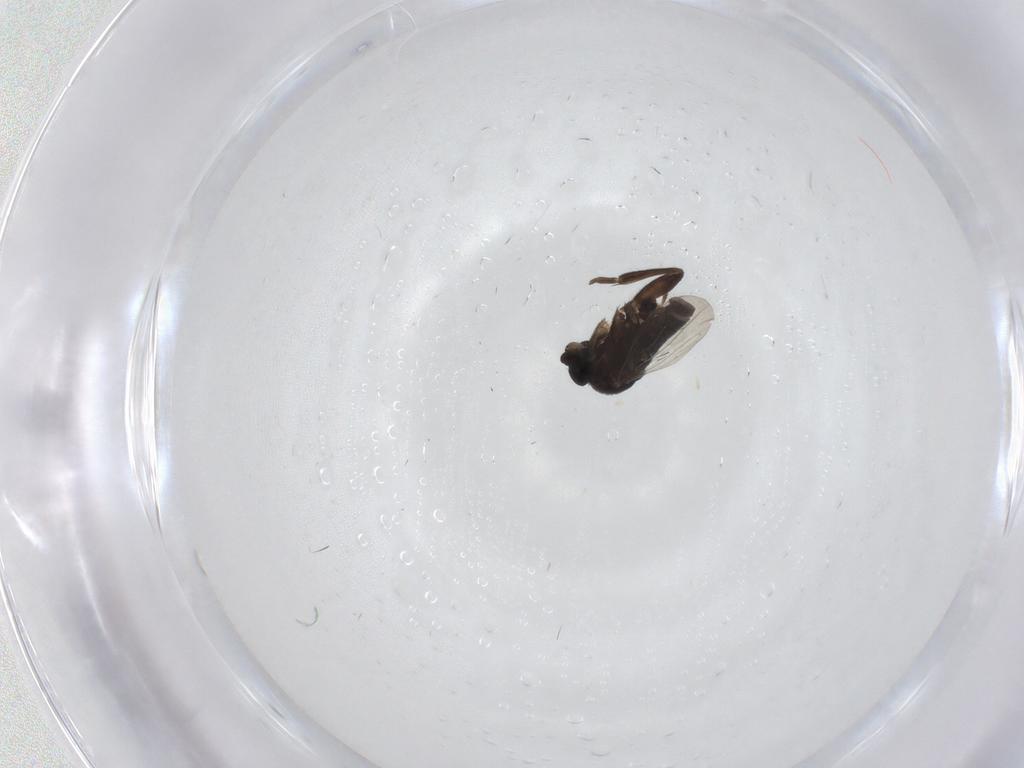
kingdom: Animalia
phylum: Arthropoda
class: Insecta
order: Diptera
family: Phoridae
